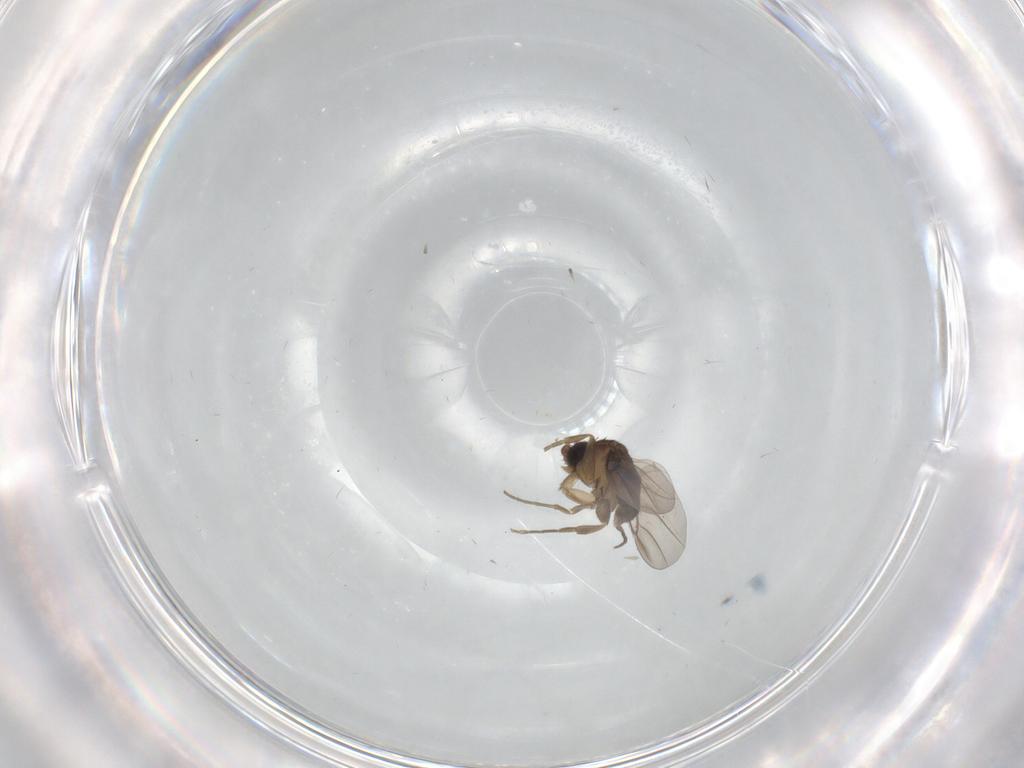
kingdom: Animalia
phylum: Arthropoda
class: Insecta
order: Diptera
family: Cecidomyiidae
